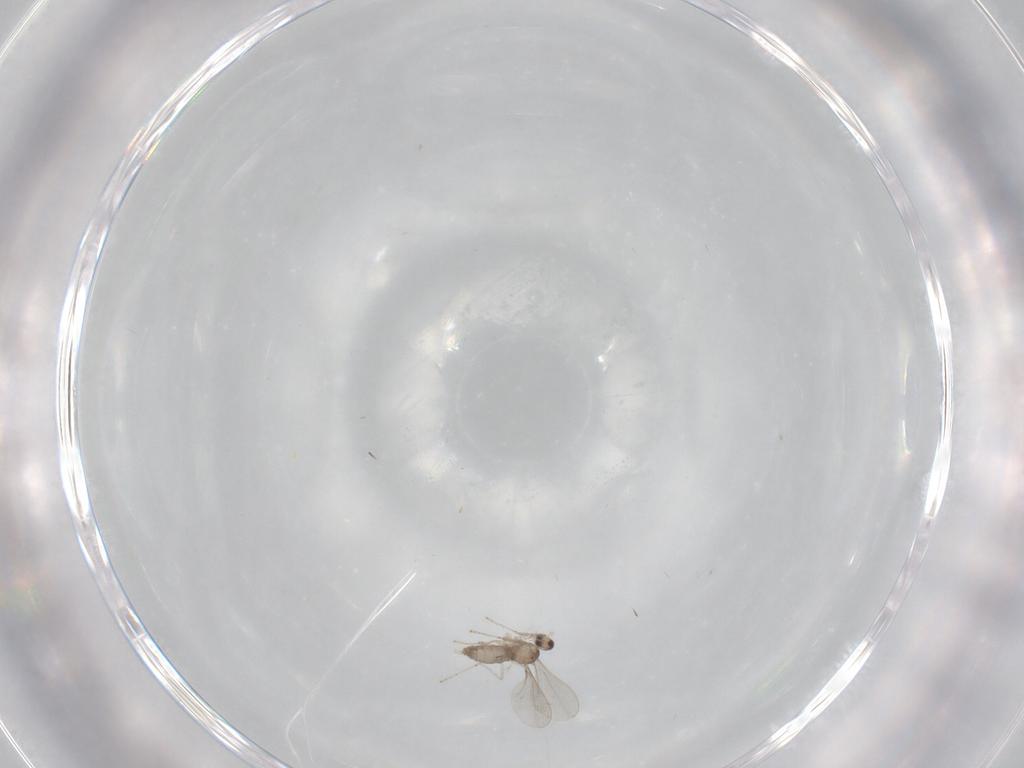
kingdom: Animalia
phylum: Arthropoda
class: Insecta
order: Diptera
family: Cecidomyiidae
